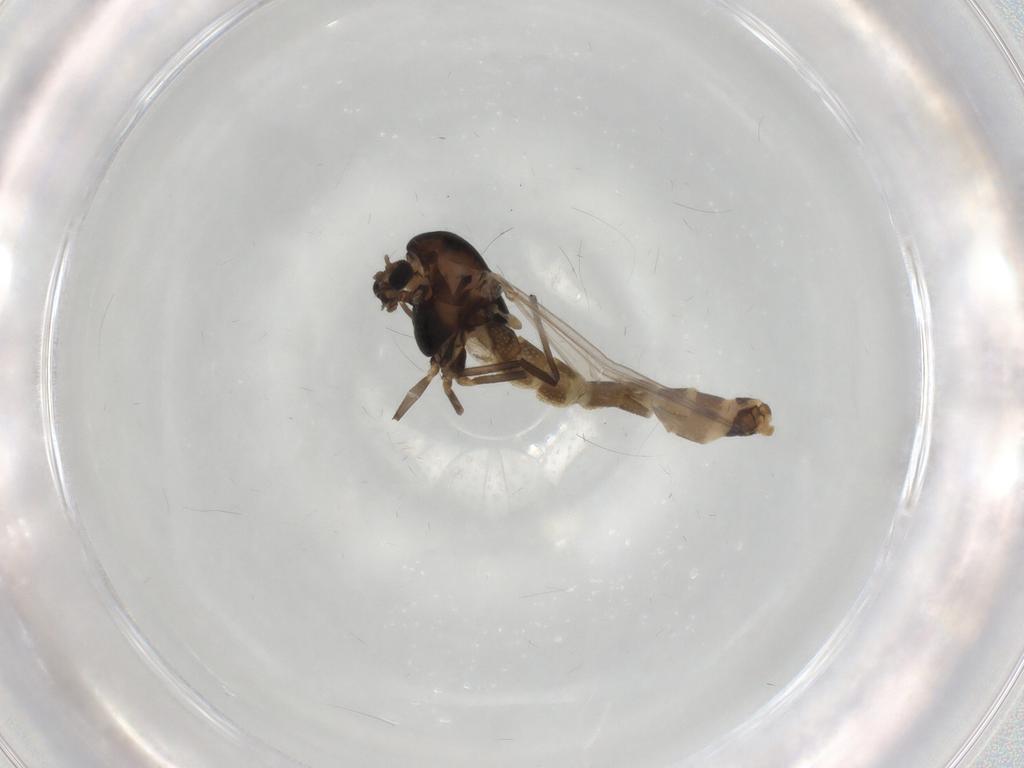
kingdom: Animalia
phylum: Arthropoda
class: Insecta
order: Diptera
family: Chironomidae
